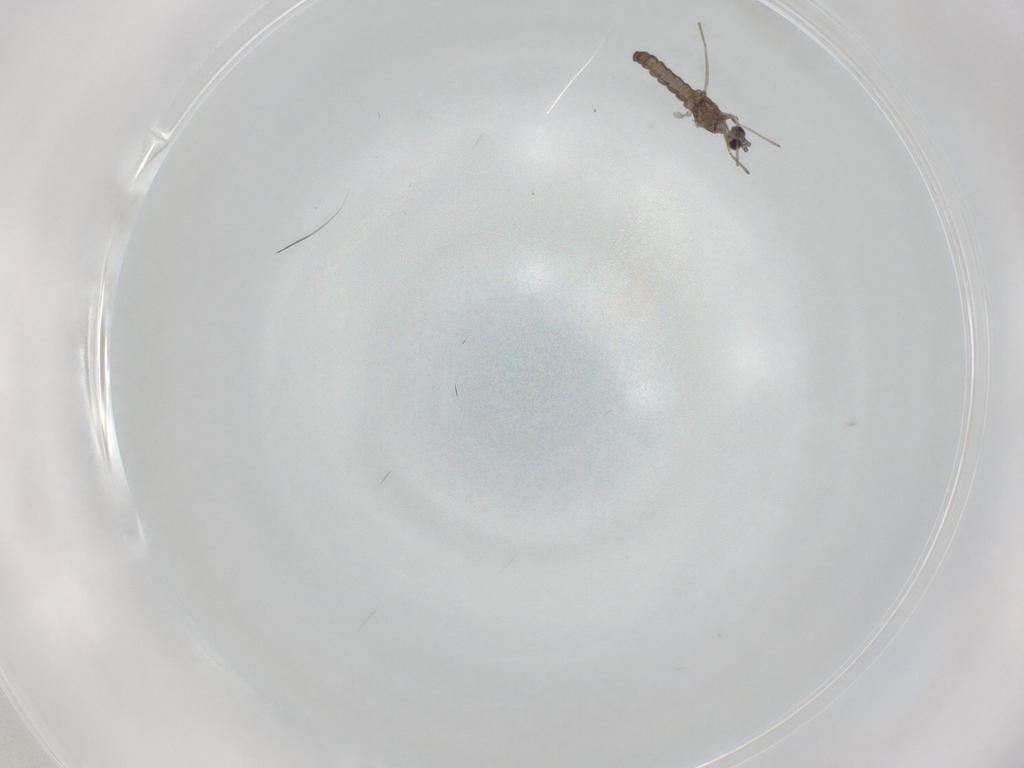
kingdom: Animalia
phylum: Arthropoda
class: Insecta
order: Diptera
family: Cecidomyiidae
